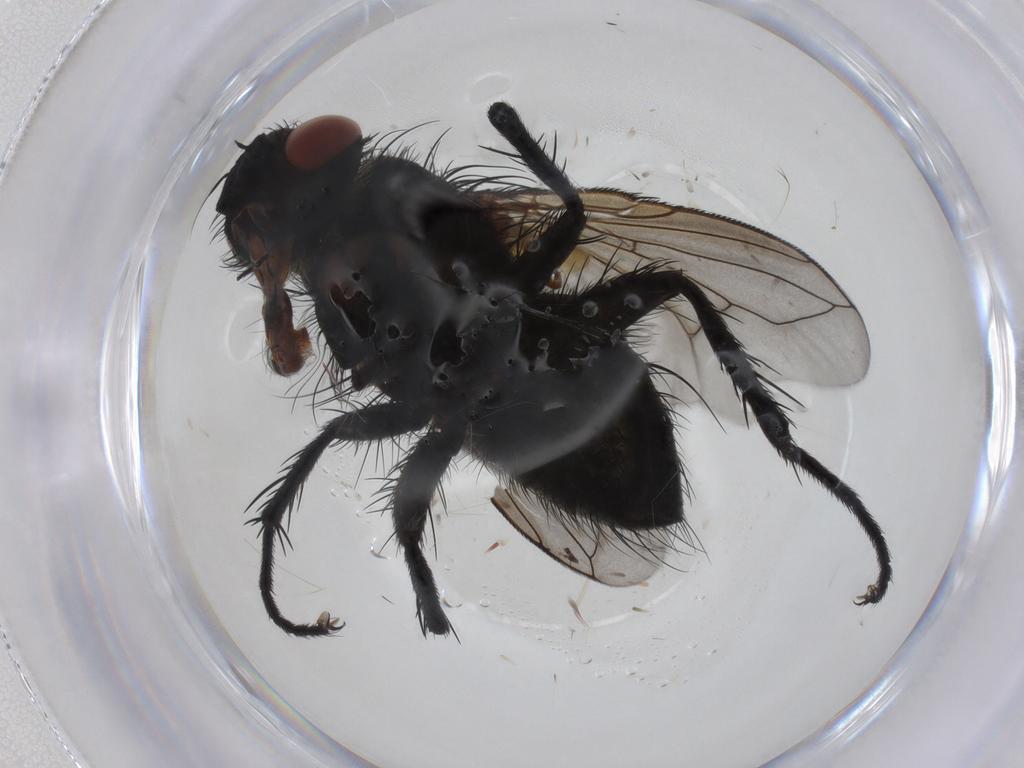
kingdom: Animalia
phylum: Arthropoda
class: Insecta
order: Diptera
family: Tachinidae
